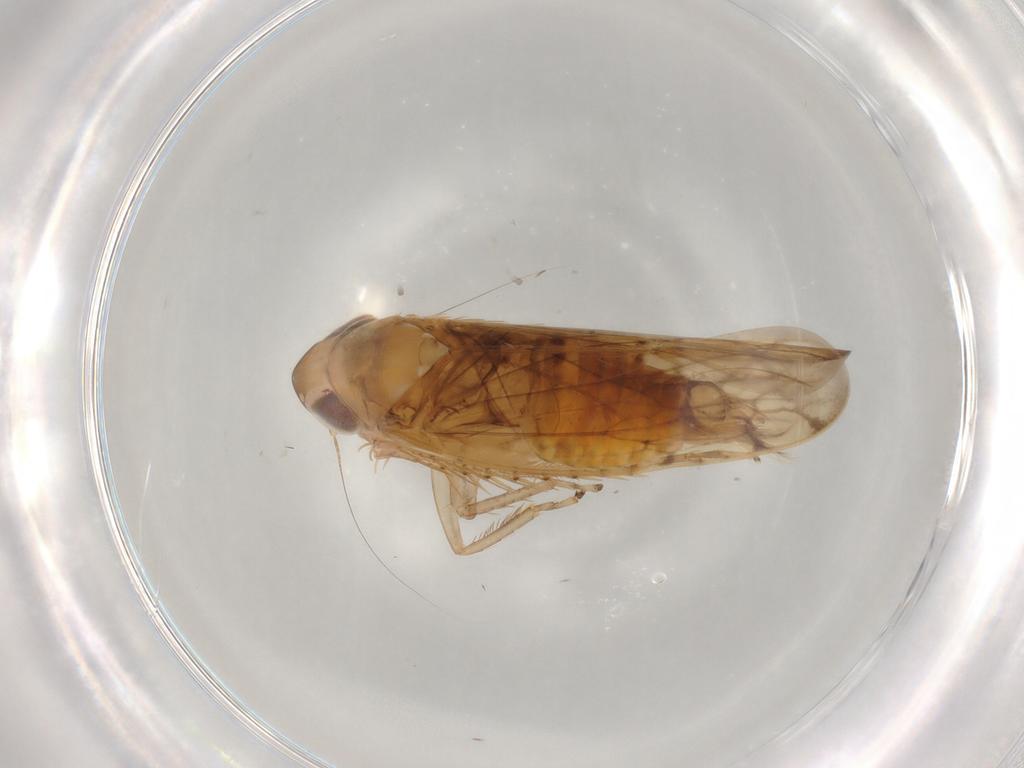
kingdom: Animalia
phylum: Arthropoda
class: Insecta
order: Hemiptera
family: Cicadellidae
